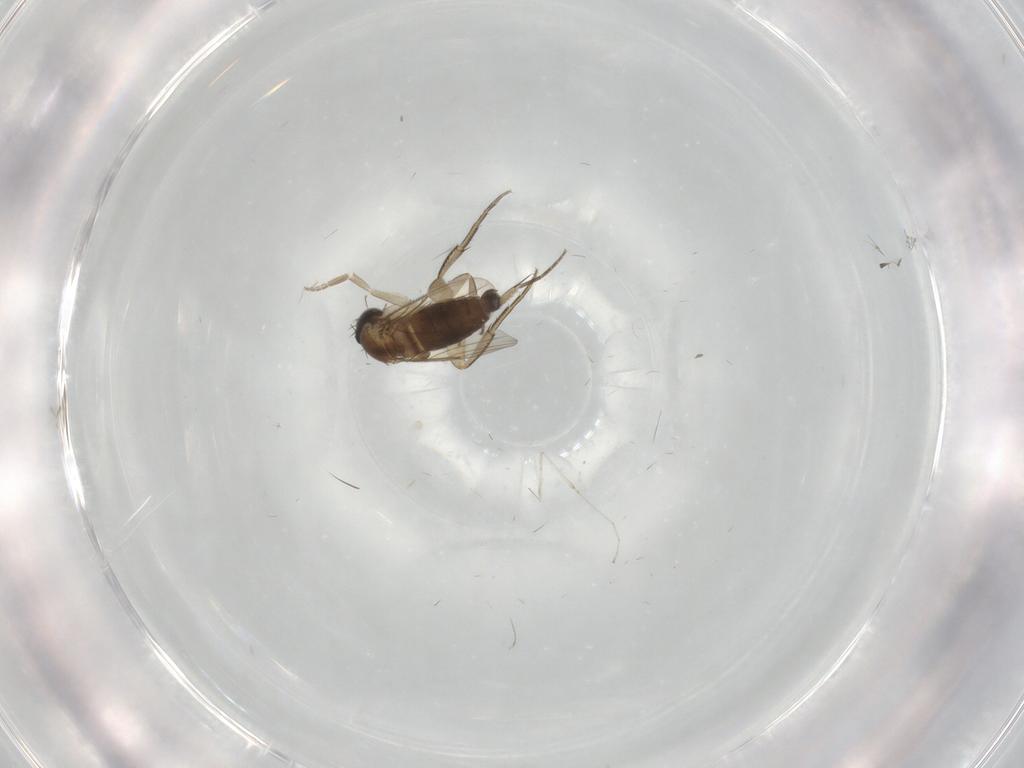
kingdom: Animalia
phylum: Arthropoda
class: Insecta
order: Diptera
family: Phoridae
